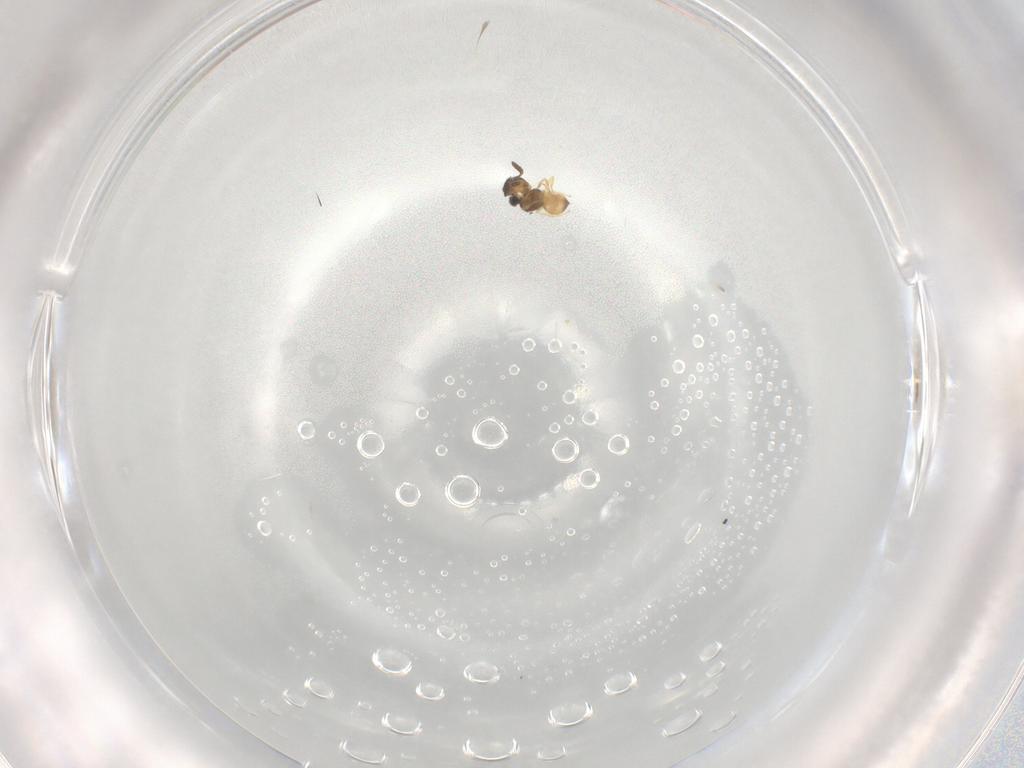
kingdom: Animalia
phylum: Arthropoda
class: Insecta
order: Hymenoptera
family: Scelionidae
